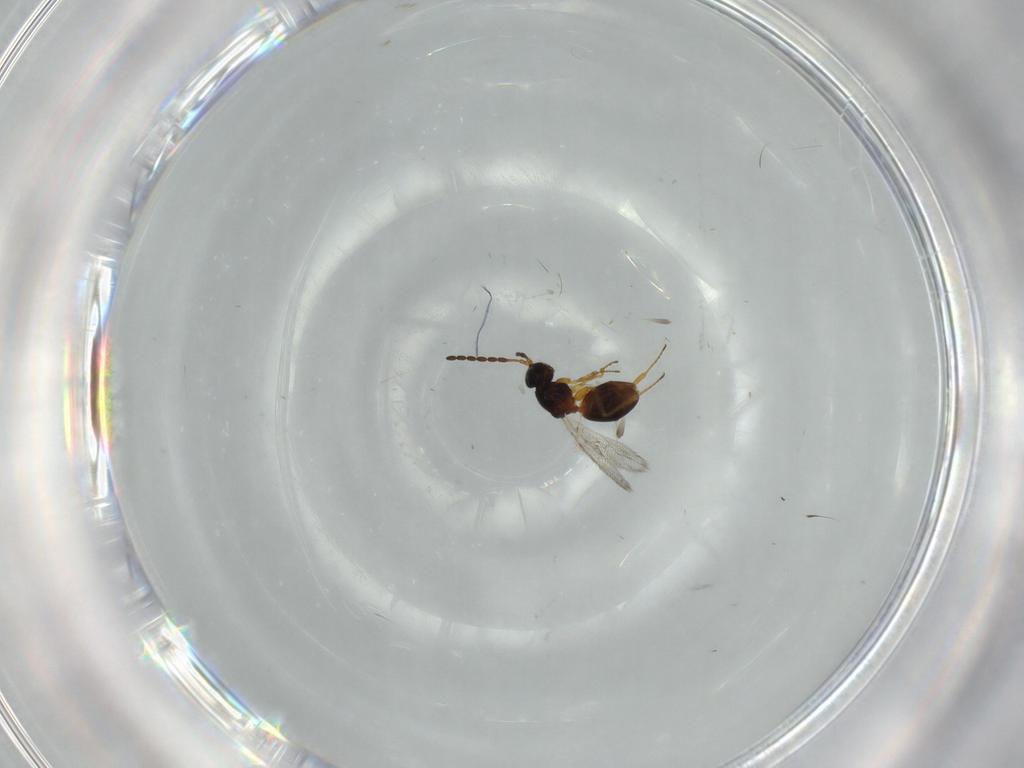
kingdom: Animalia
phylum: Arthropoda
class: Insecta
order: Hymenoptera
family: Figitidae
